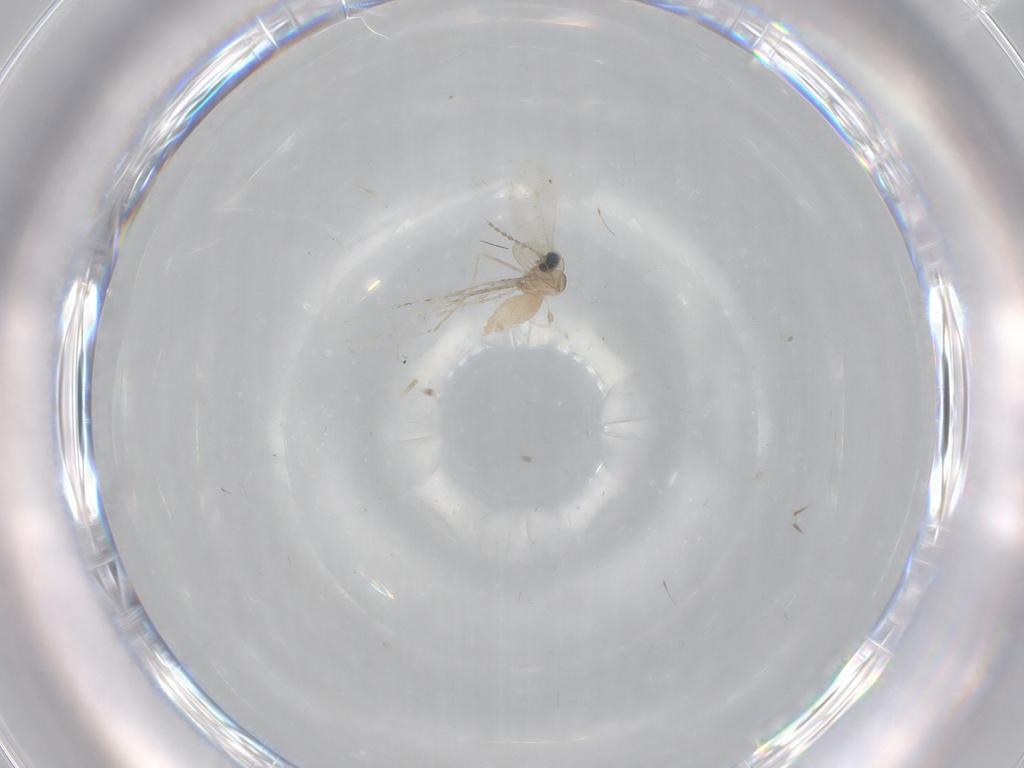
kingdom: Animalia
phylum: Arthropoda
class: Insecta
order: Diptera
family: Cecidomyiidae
